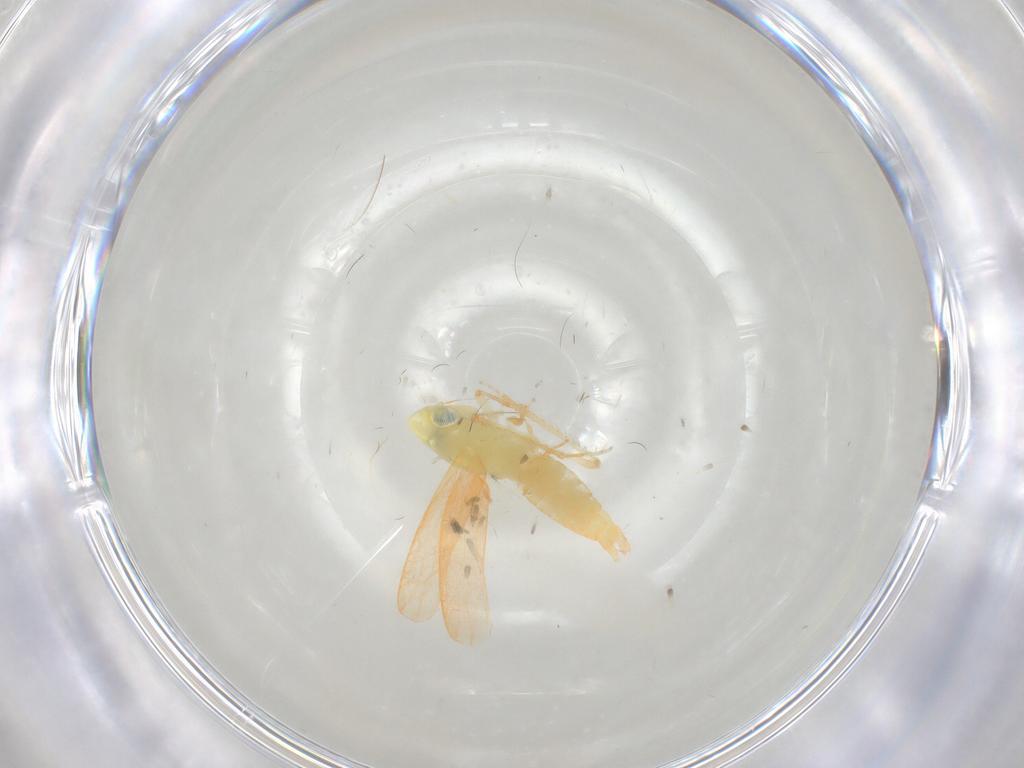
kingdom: Animalia
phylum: Arthropoda
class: Insecta
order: Hemiptera
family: Cicadellidae
